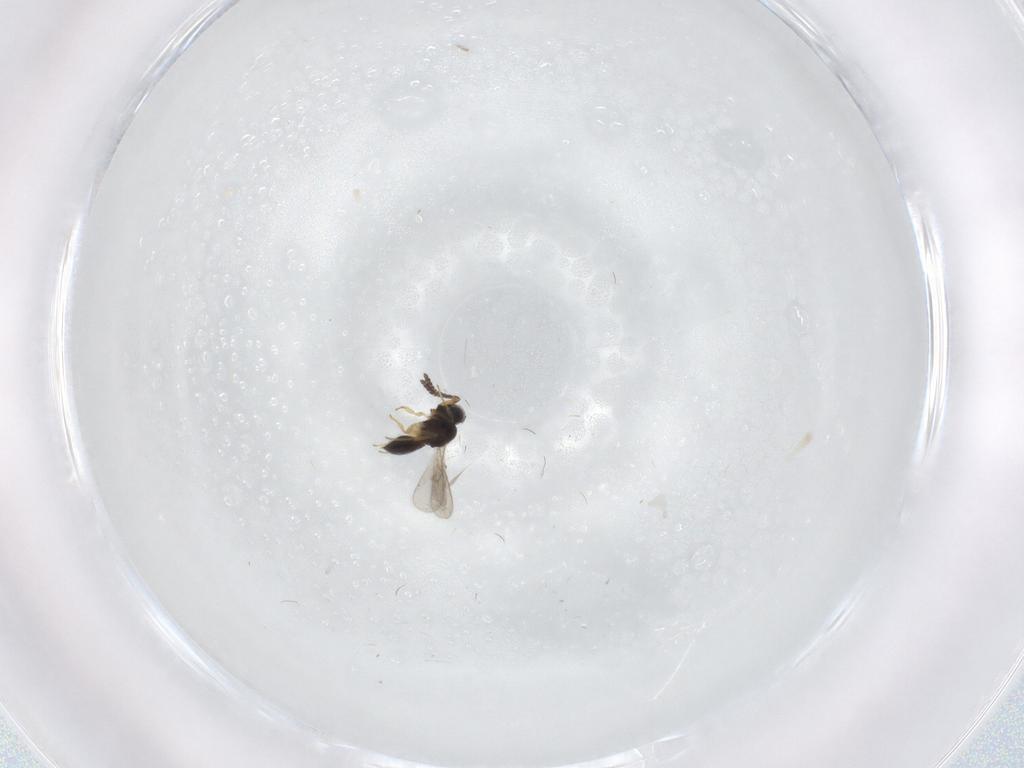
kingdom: Animalia
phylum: Arthropoda
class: Insecta
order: Hymenoptera
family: Scelionidae
